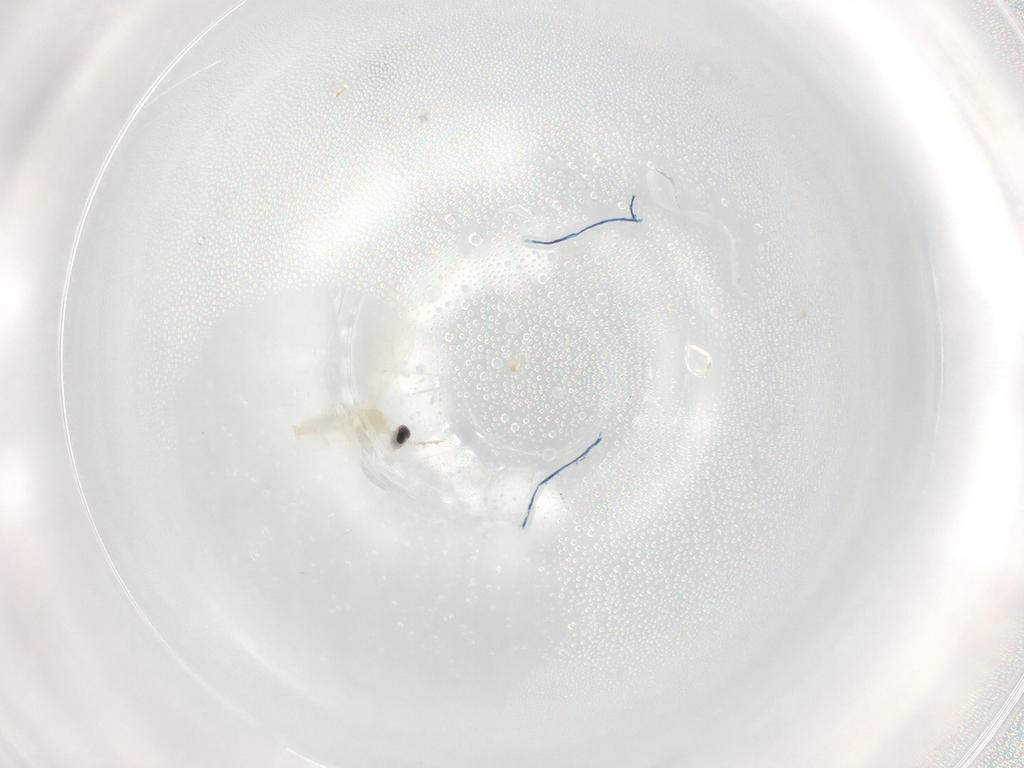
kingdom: Animalia
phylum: Arthropoda
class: Insecta
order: Diptera
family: Cecidomyiidae
